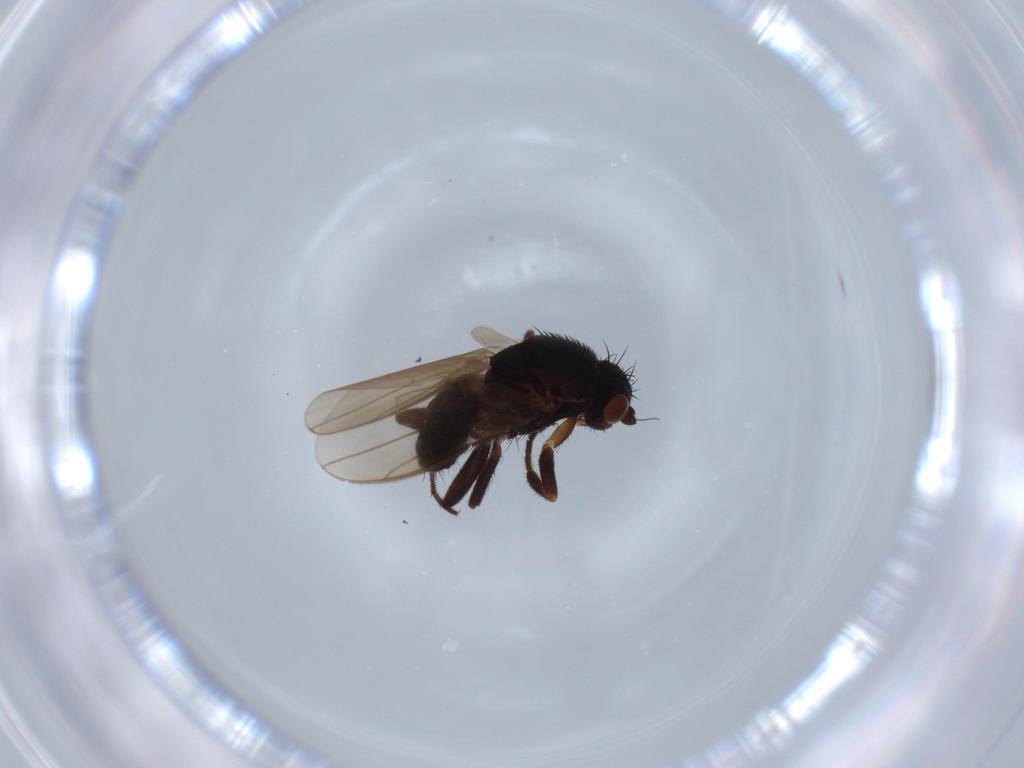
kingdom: Animalia
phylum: Arthropoda
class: Insecta
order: Diptera
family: Sphaeroceridae
